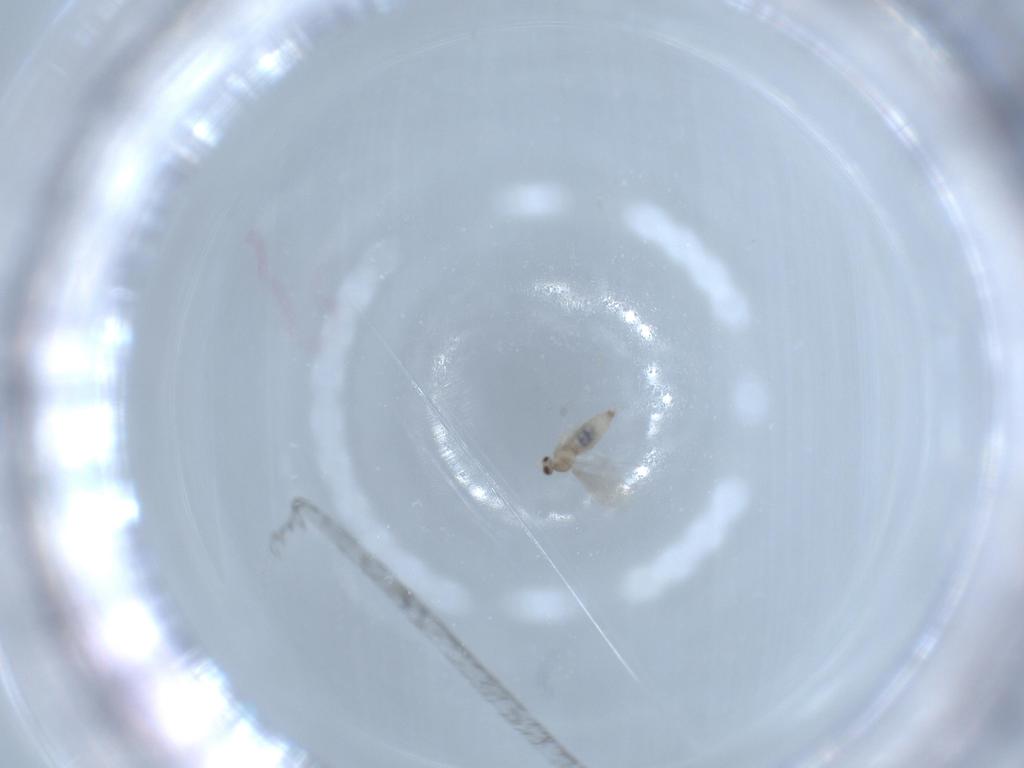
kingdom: Animalia
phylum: Arthropoda
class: Insecta
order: Diptera
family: Cecidomyiidae
